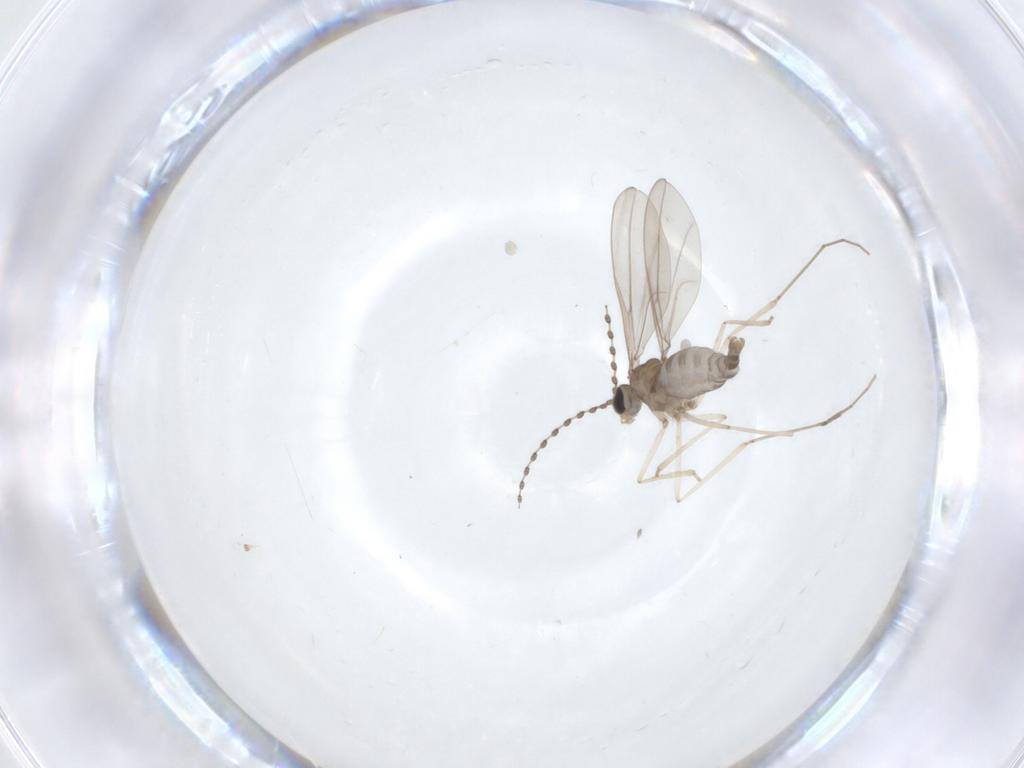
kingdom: Animalia
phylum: Arthropoda
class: Insecta
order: Diptera
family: Cecidomyiidae
